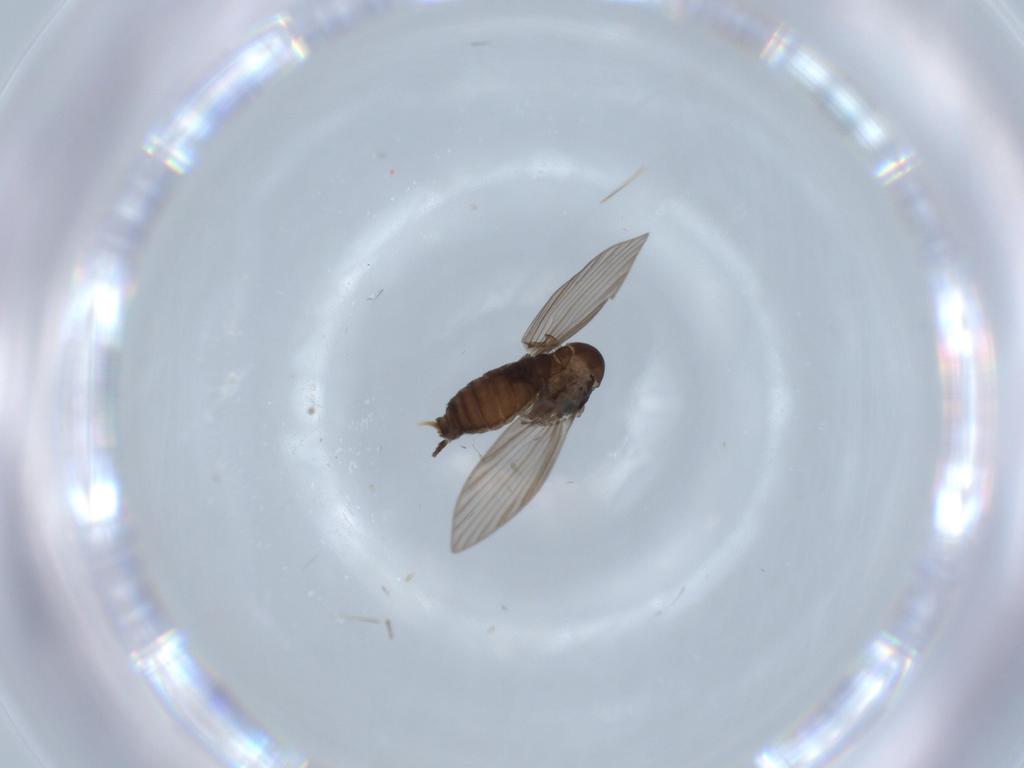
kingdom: Animalia
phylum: Arthropoda
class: Insecta
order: Diptera
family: Psychodidae
